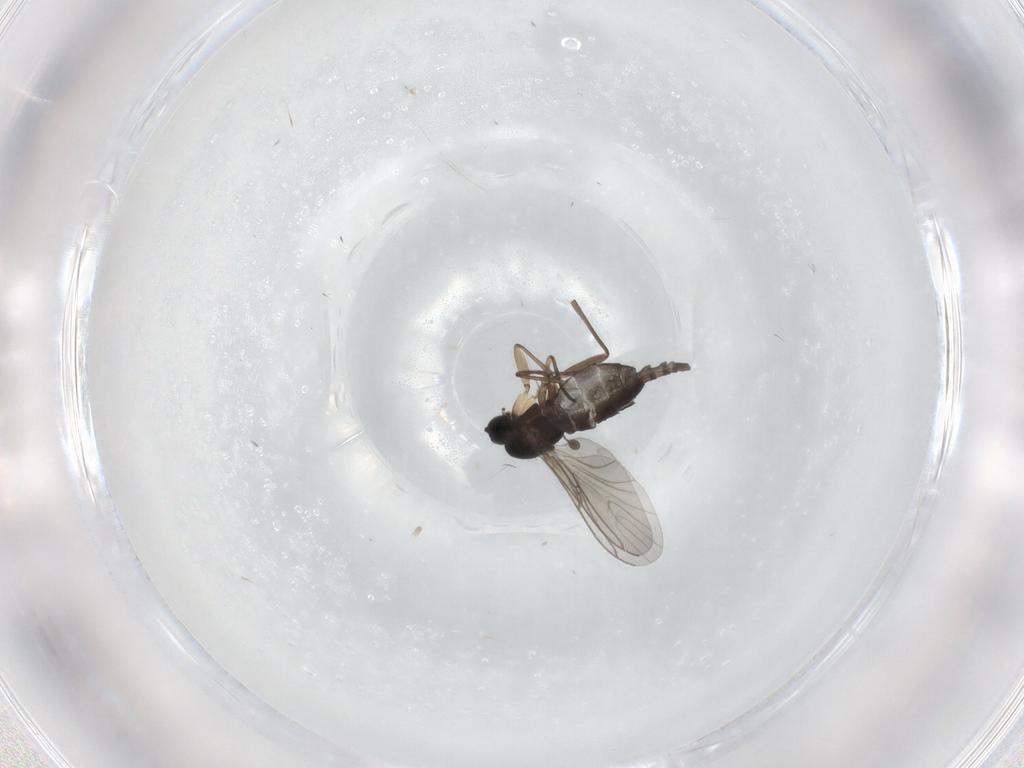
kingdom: Animalia
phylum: Arthropoda
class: Insecta
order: Diptera
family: Sciaridae
